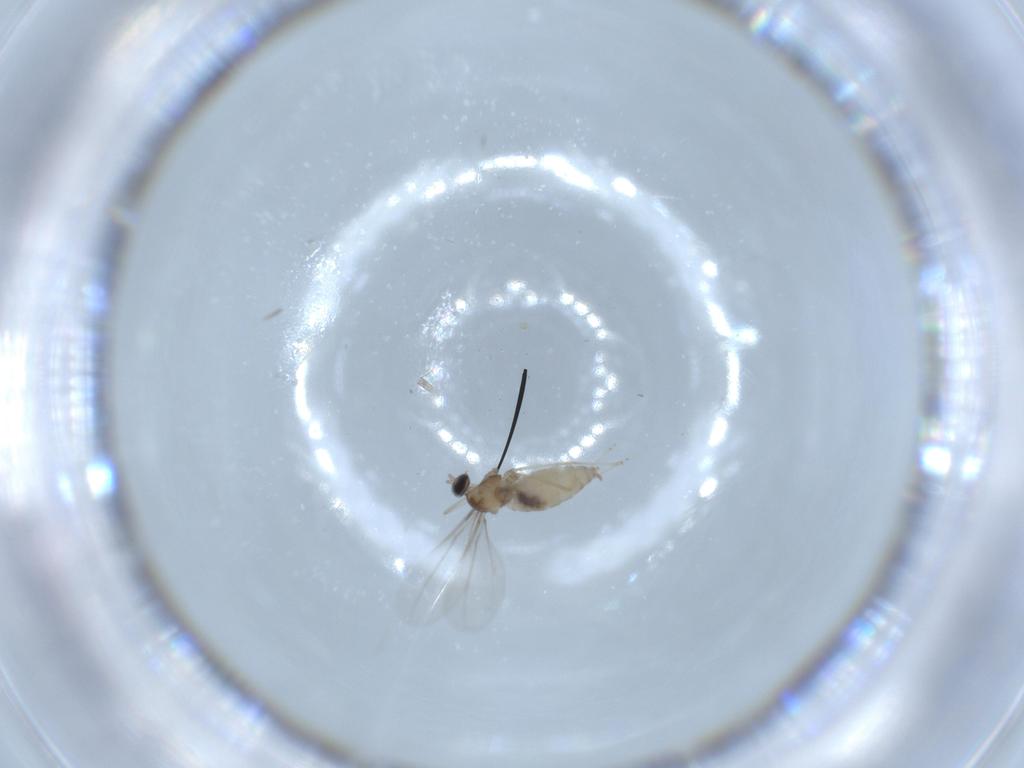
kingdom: Animalia
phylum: Arthropoda
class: Insecta
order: Diptera
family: Cecidomyiidae
